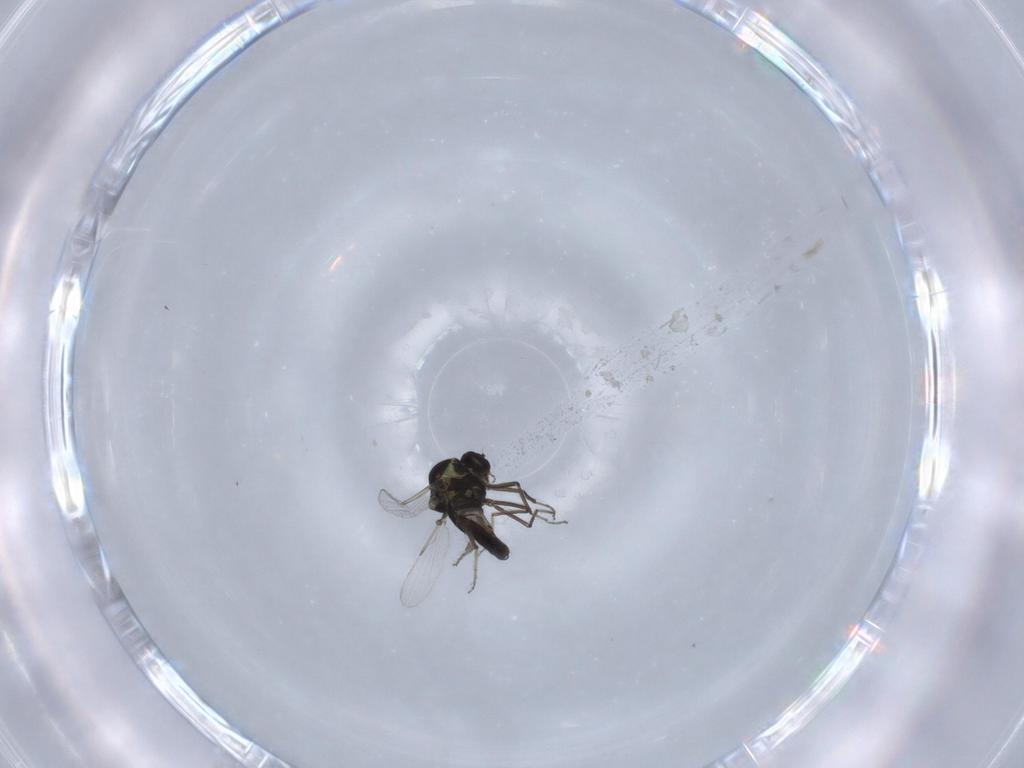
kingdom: Animalia
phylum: Arthropoda
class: Insecta
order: Diptera
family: Ceratopogonidae
